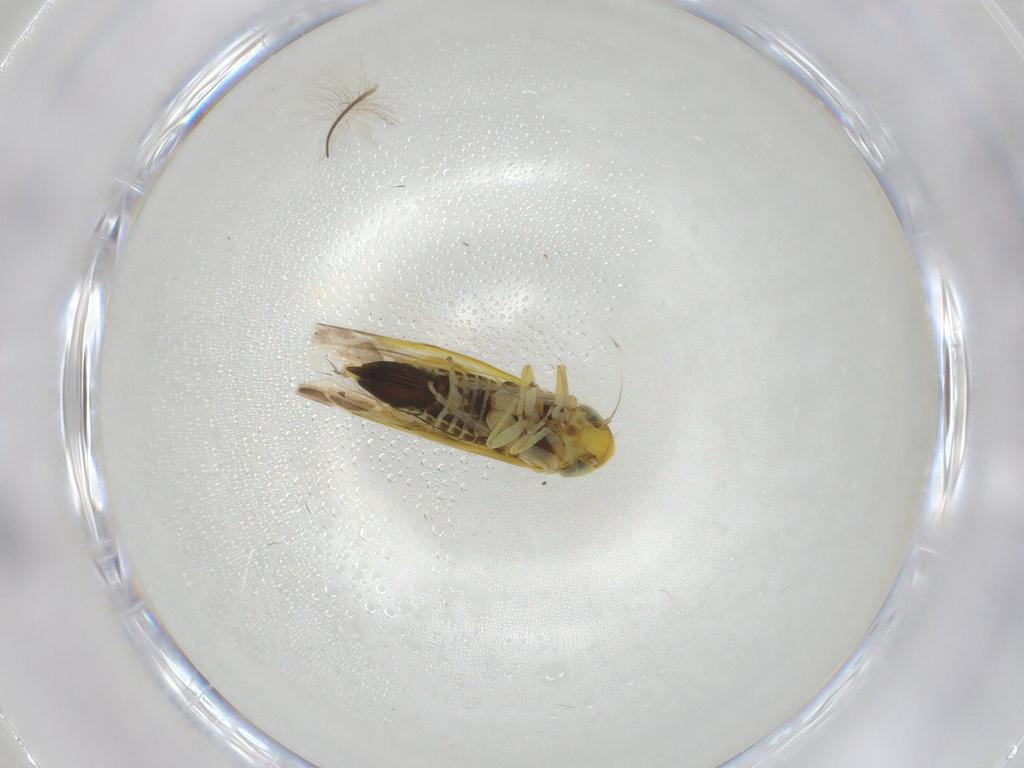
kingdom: Animalia
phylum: Arthropoda
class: Insecta
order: Hemiptera
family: Cicadellidae
